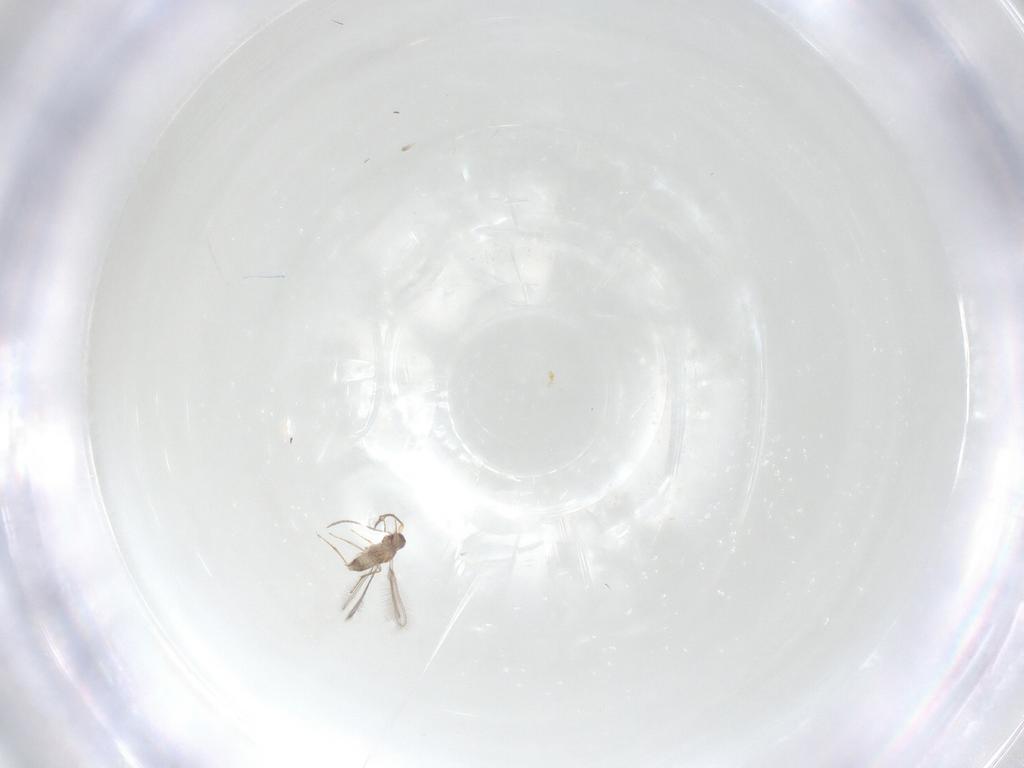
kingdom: Animalia
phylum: Arthropoda
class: Insecta
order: Hymenoptera
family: Mymaridae
